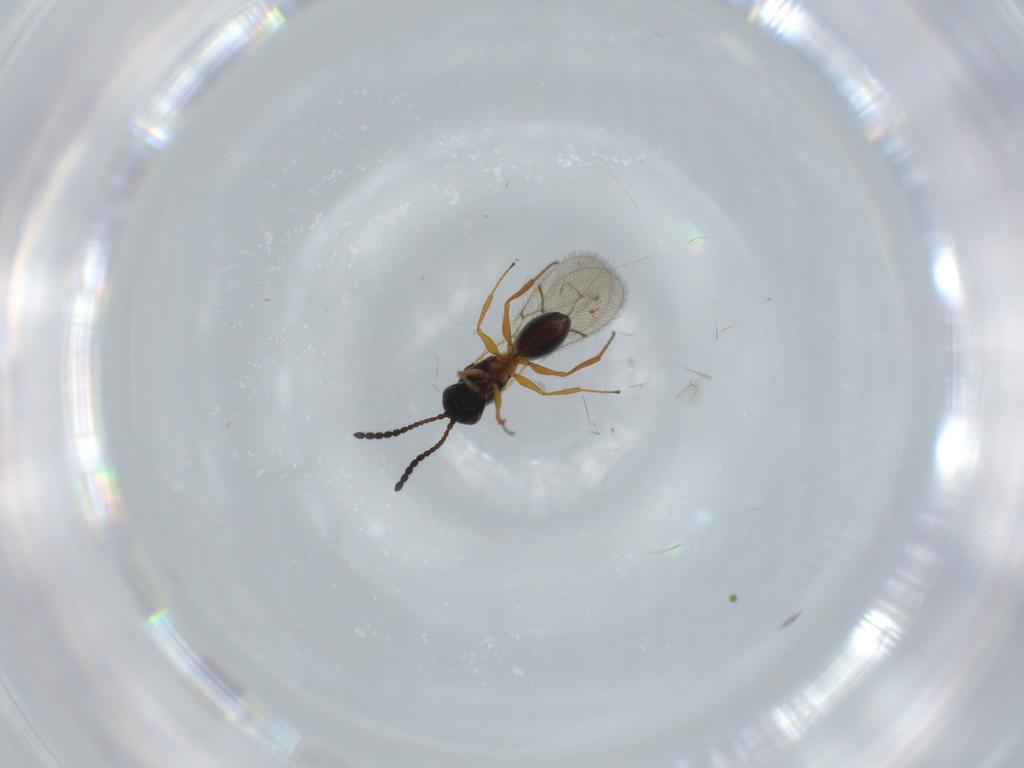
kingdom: Animalia
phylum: Arthropoda
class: Insecta
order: Hymenoptera
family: Figitidae
